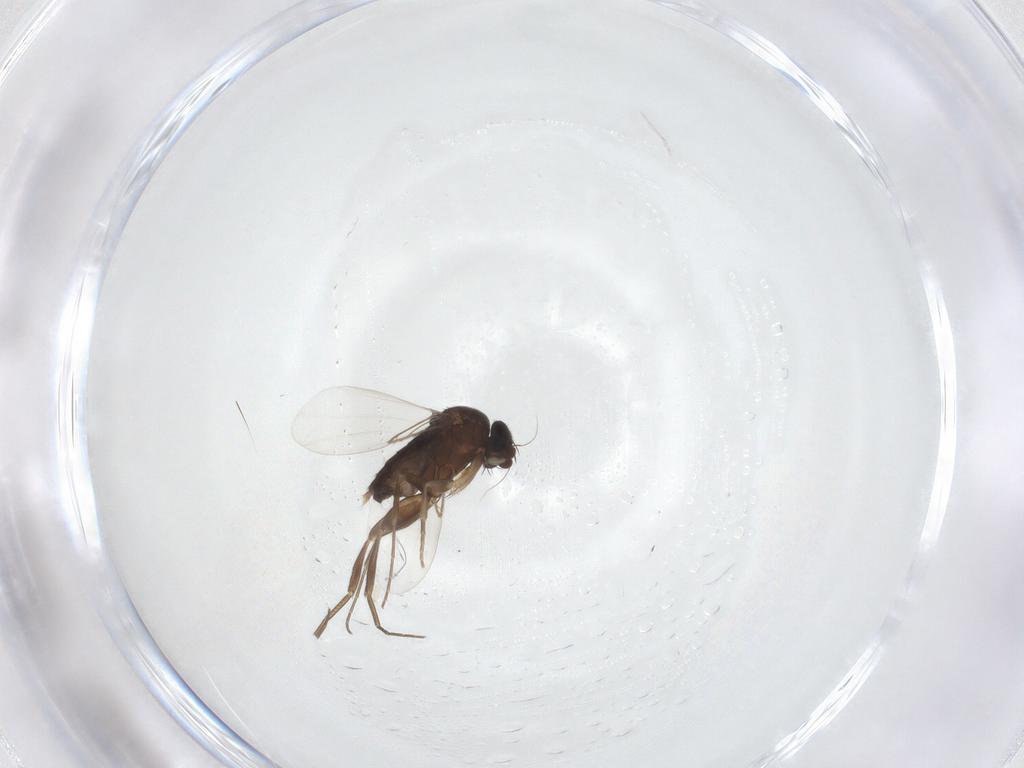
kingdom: Animalia
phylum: Arthropoda
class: Insecta
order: Diptera
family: Phoridae
